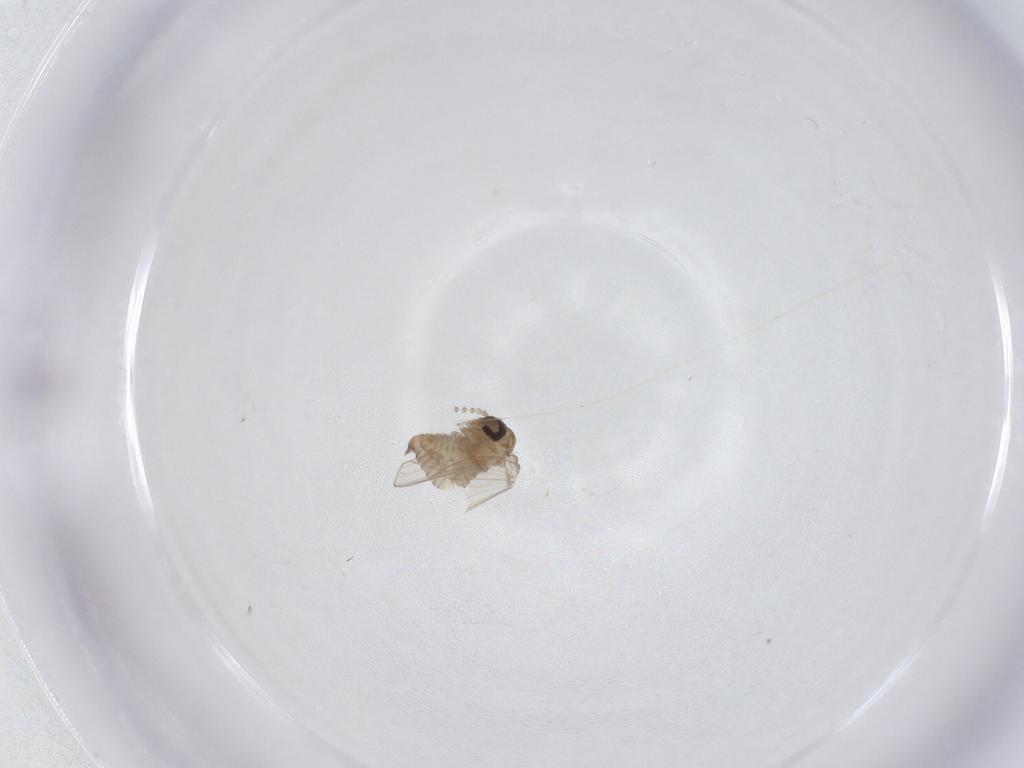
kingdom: Animalia
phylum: Arthropoda
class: Insecta
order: Diptera
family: Psychodidae
